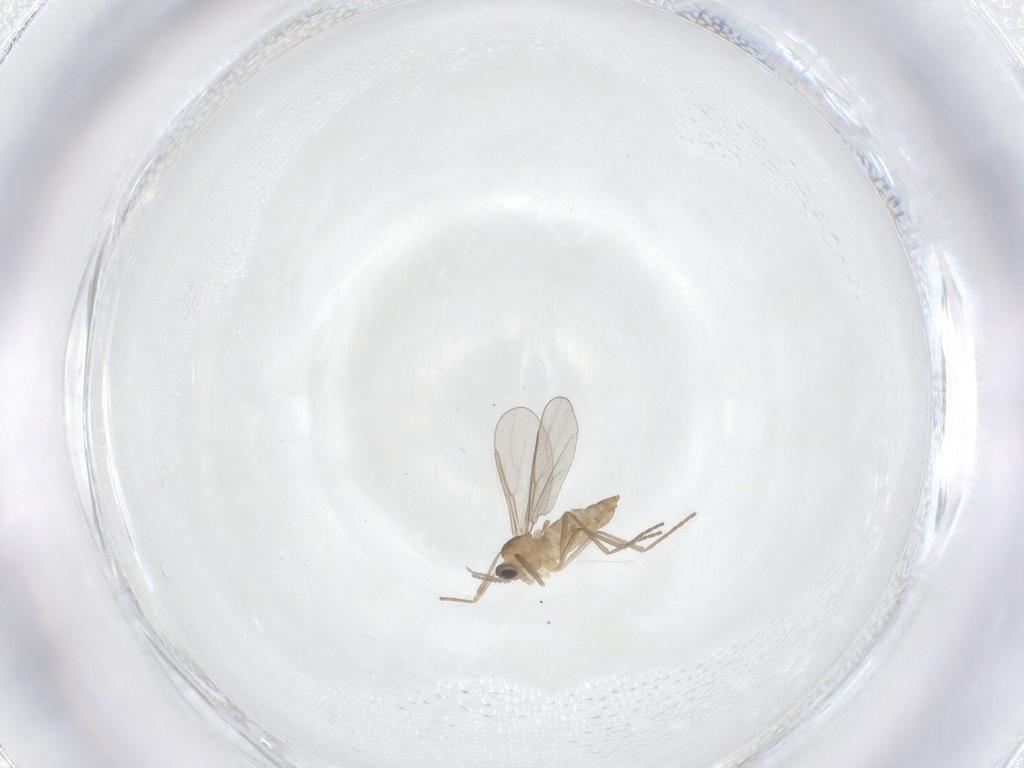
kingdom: Animalia
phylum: Arthropoda
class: Insecta
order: Diptera
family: Cecidomyiidae
